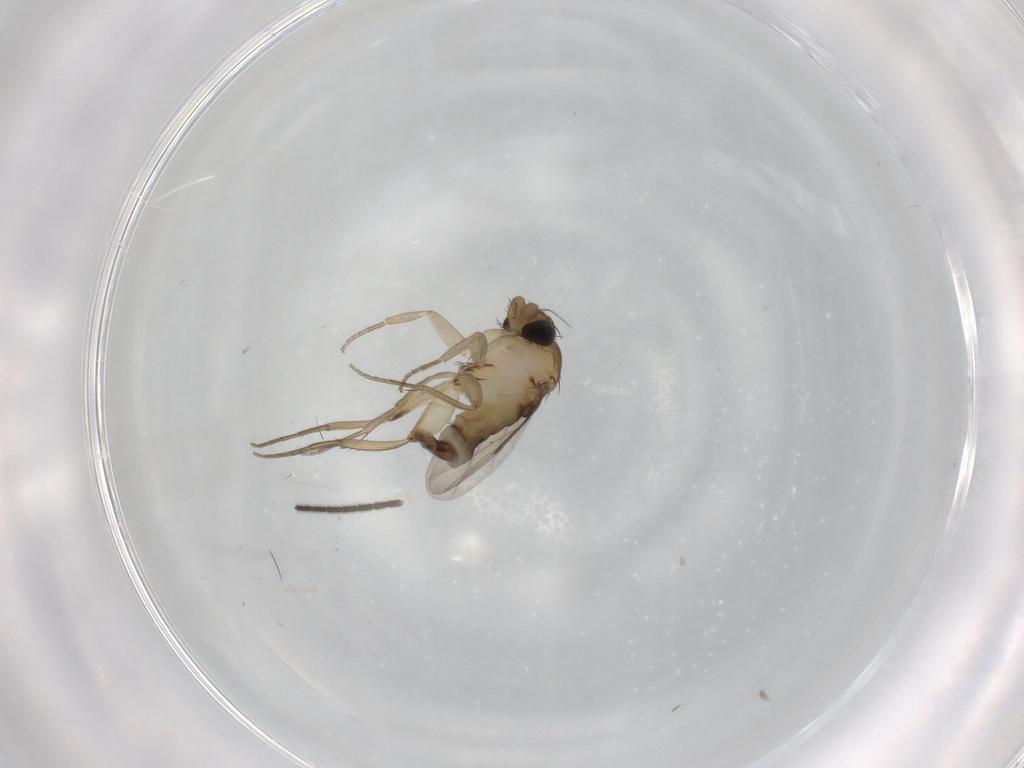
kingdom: Animalia
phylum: Arthropoda
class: Insecta
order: Diptera
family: Phoridae
